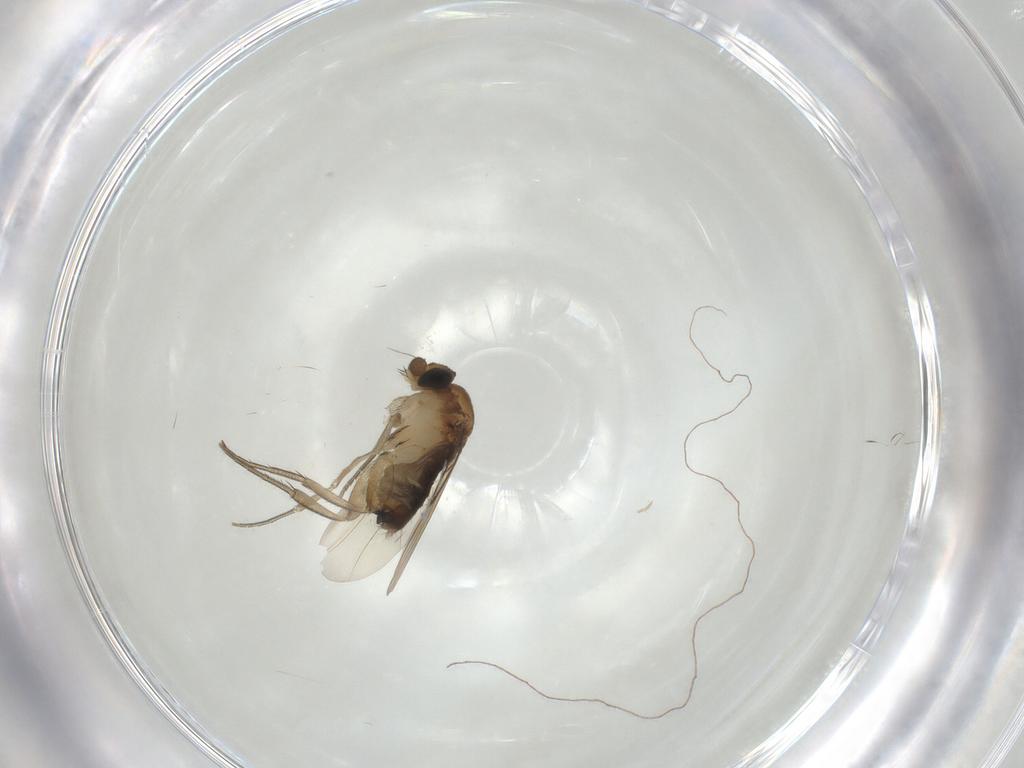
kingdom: Animalia
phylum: Arthropoda
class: Insecta
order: Diptera
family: Phoridae
